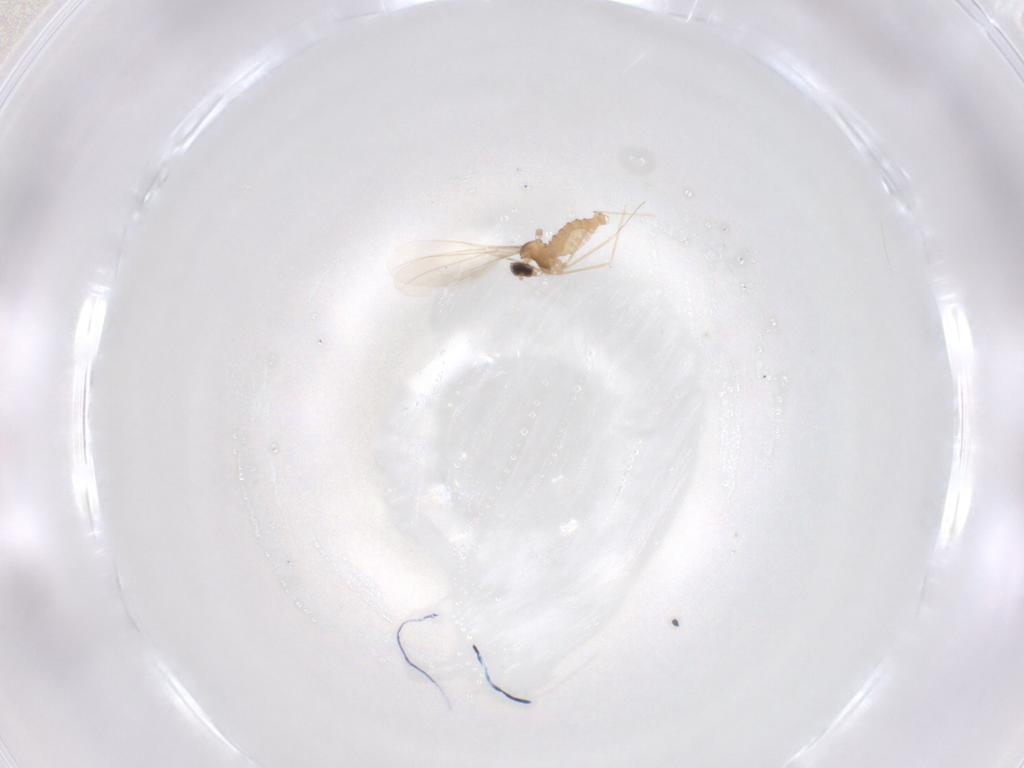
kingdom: Animalia
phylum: Arthropoda
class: Insecta
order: Diptera
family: Cecidomyiidae
